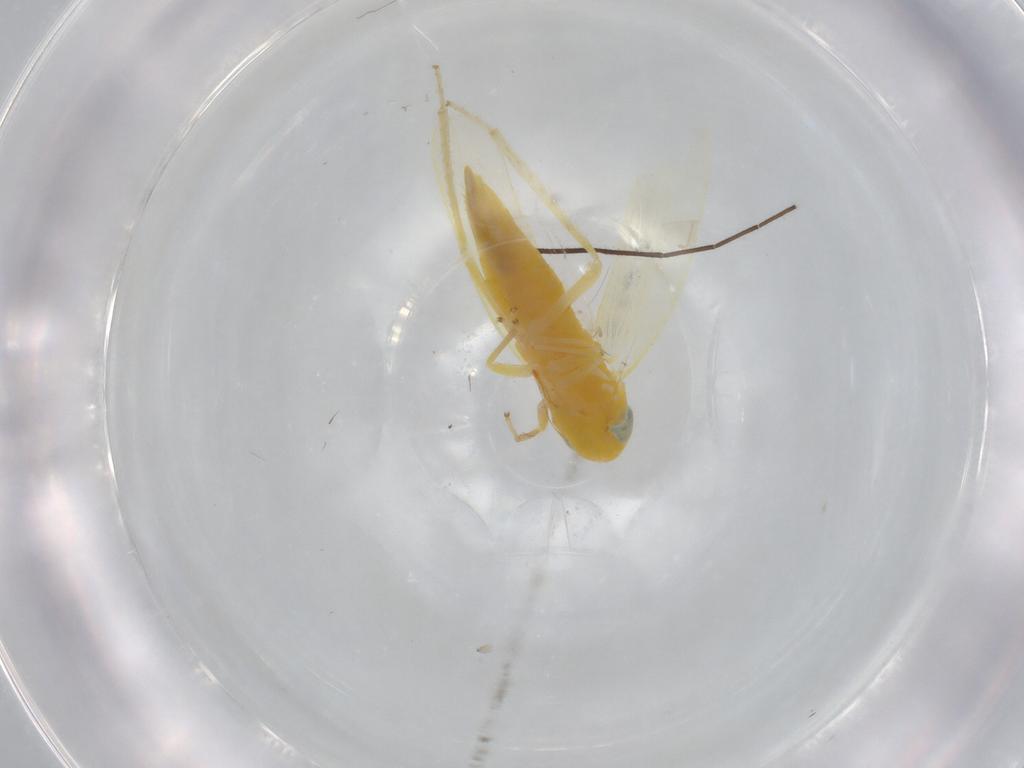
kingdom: Animalia
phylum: Arthropoda
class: Insecta
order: Hemiptera
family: Cicadellidae
